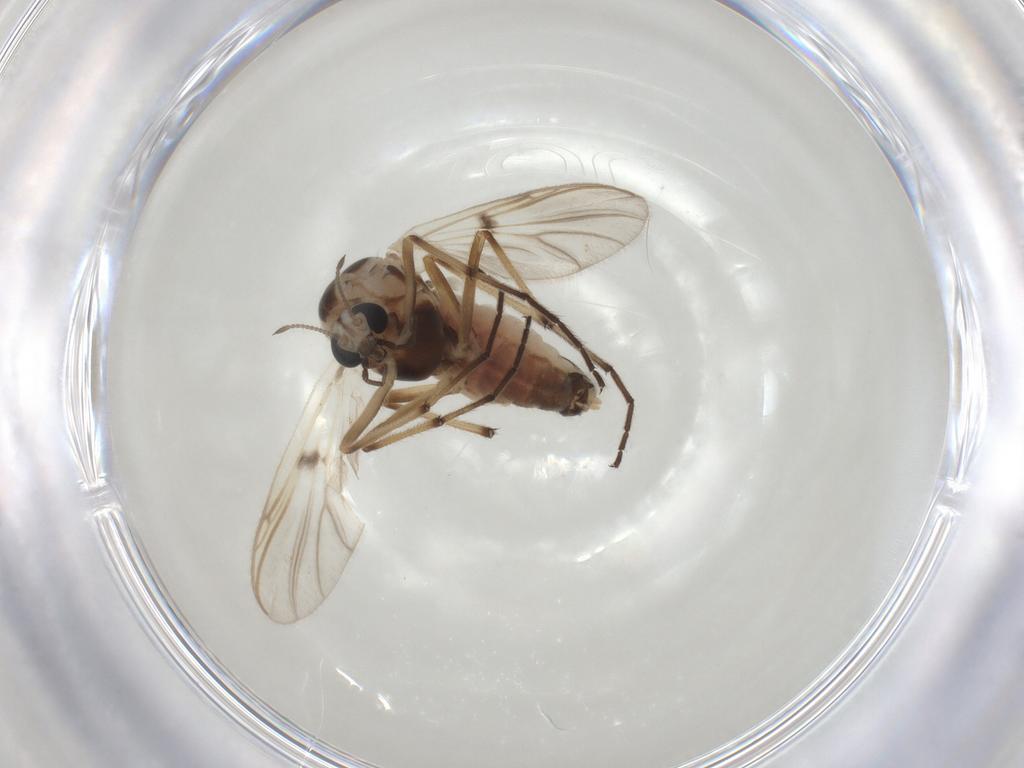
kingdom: Animalia
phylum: Arthropoda
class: Insecta
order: Diptera
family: Chironomidae
